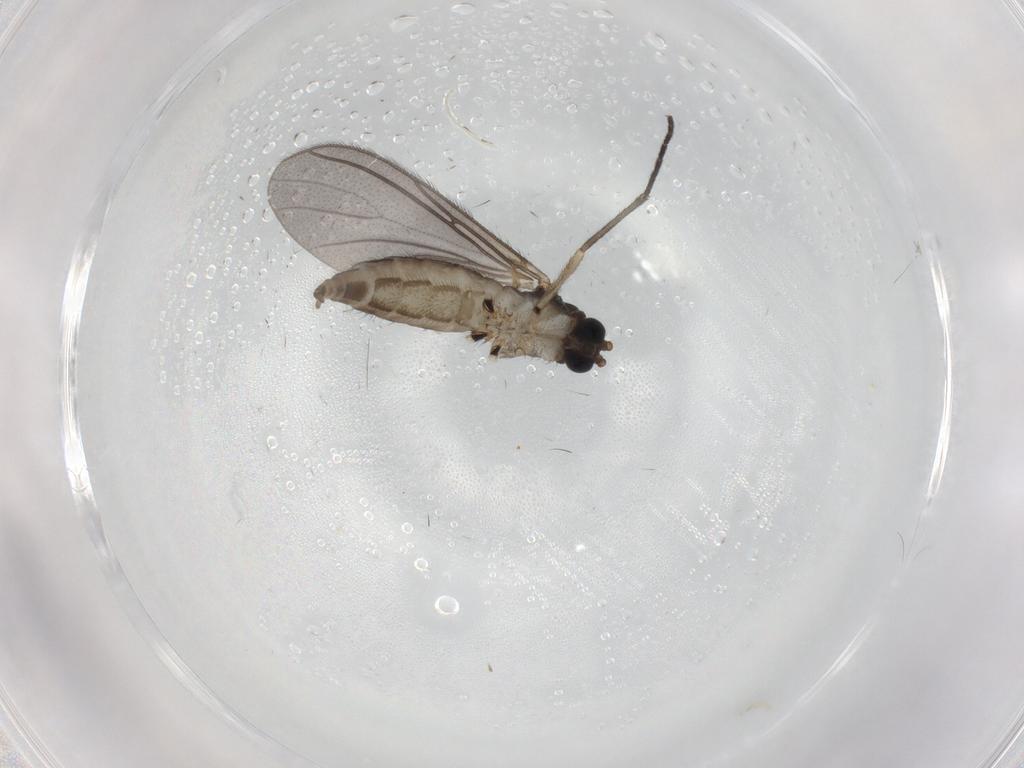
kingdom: Animalia
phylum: Arthropoda
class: Insecta
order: Diptera
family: Sciaridae
